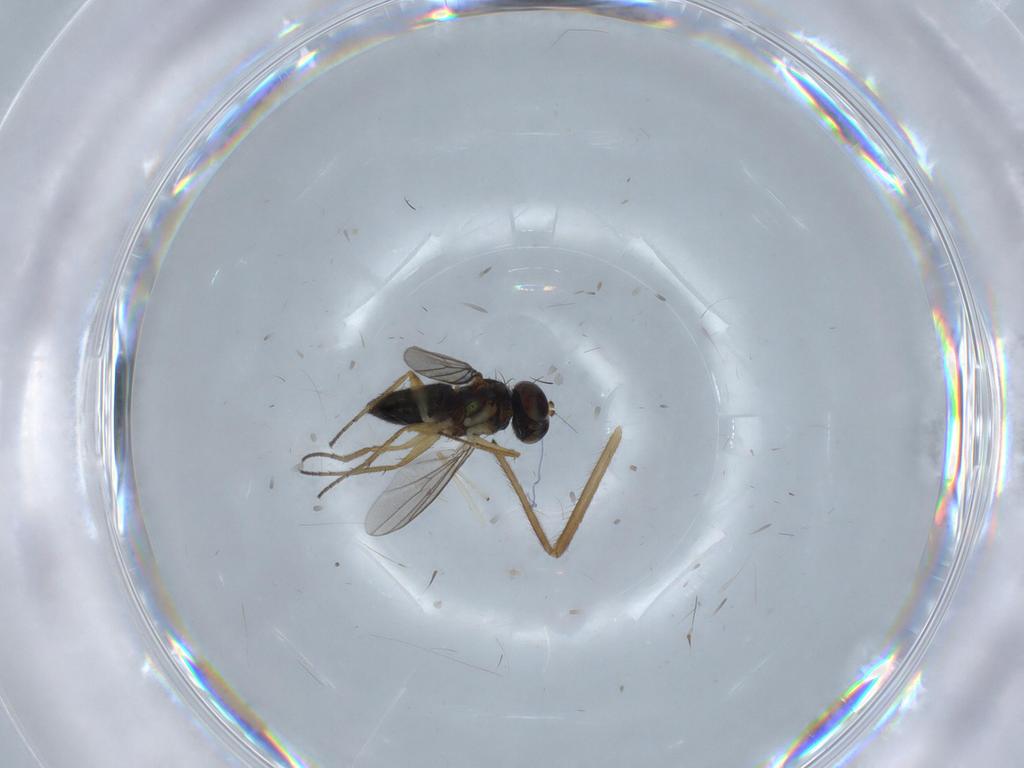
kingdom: Animalia
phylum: Arthropoda
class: Insecta
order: Diptera
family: Chironomidae
